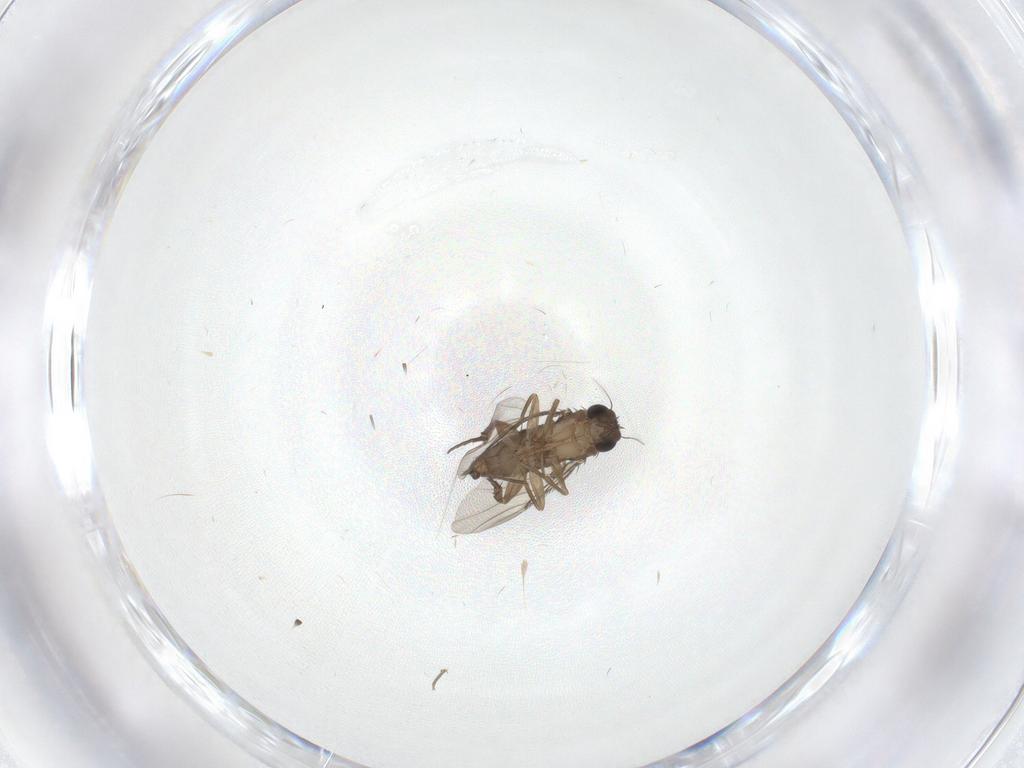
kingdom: Animalia
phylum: Arthropoda
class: Insecta
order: Diptera
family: Phoridae
